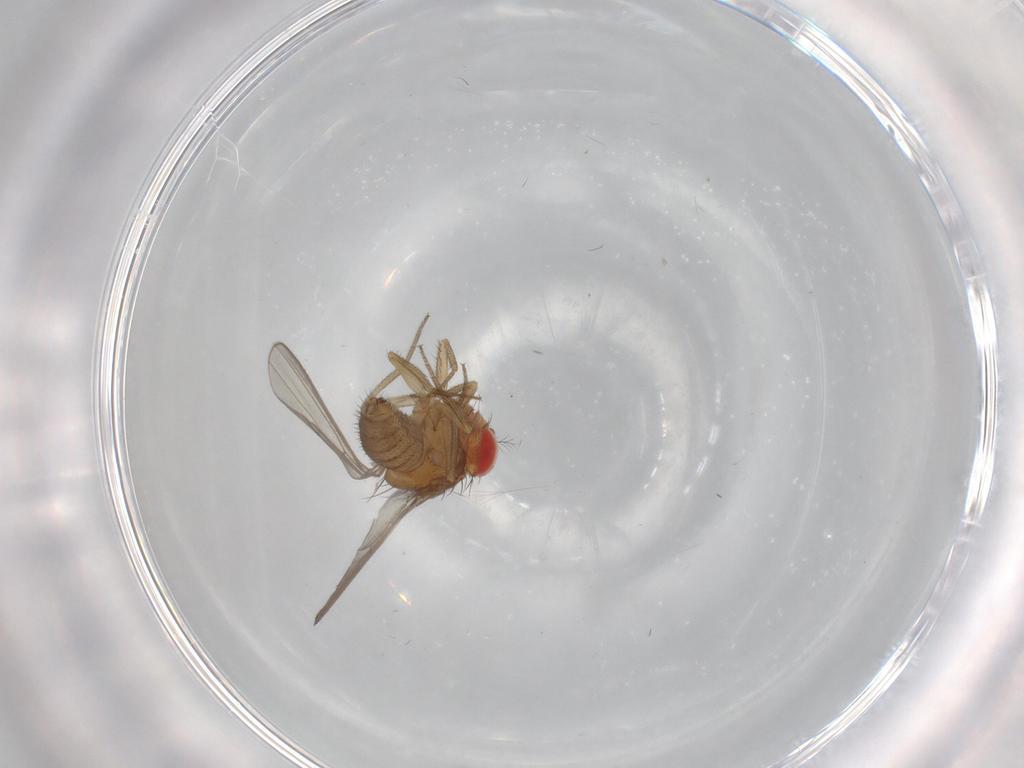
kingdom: Animalia
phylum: Arthropoda
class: Insecta
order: Diptera
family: Drosophilidae
